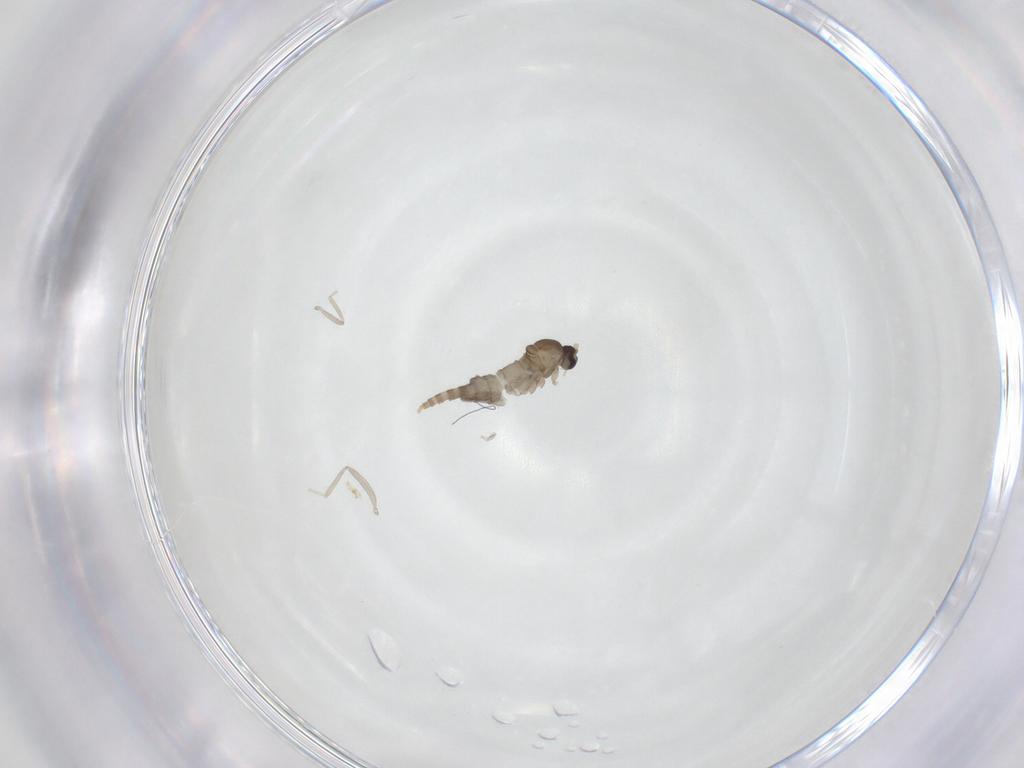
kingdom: Animalia
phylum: Arthropoda
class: Insecta
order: Diptera
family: Cecidomyiidae
